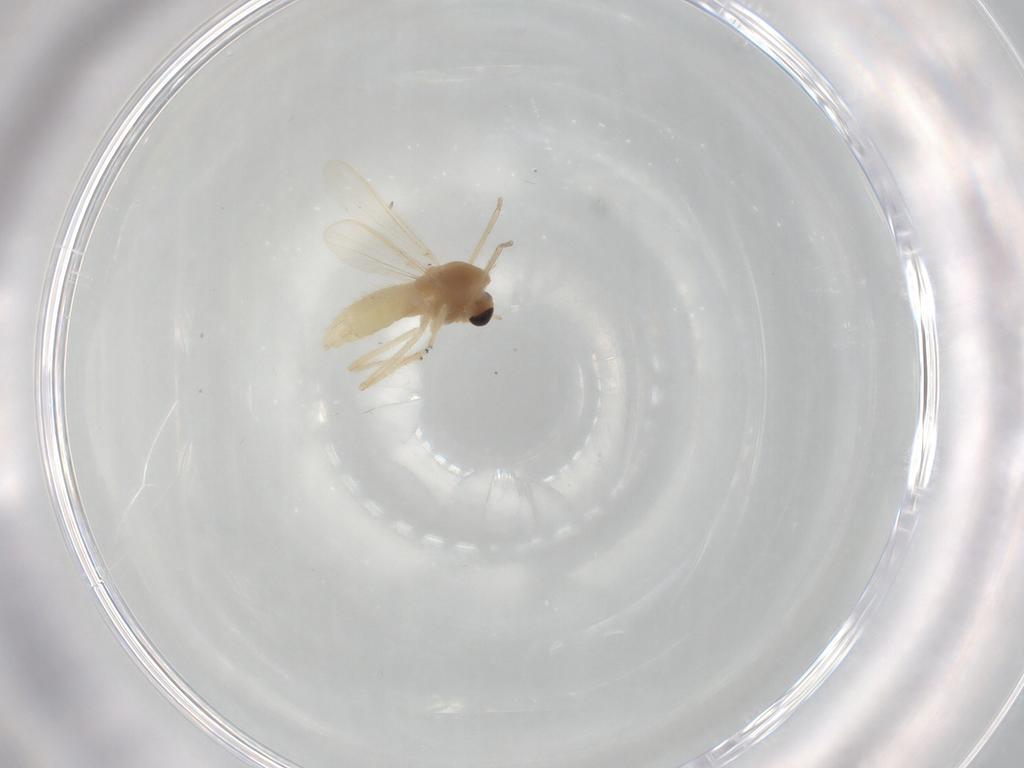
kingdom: Animalia
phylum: Arthropoda
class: Insecta
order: Diptera
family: Chironomidae
